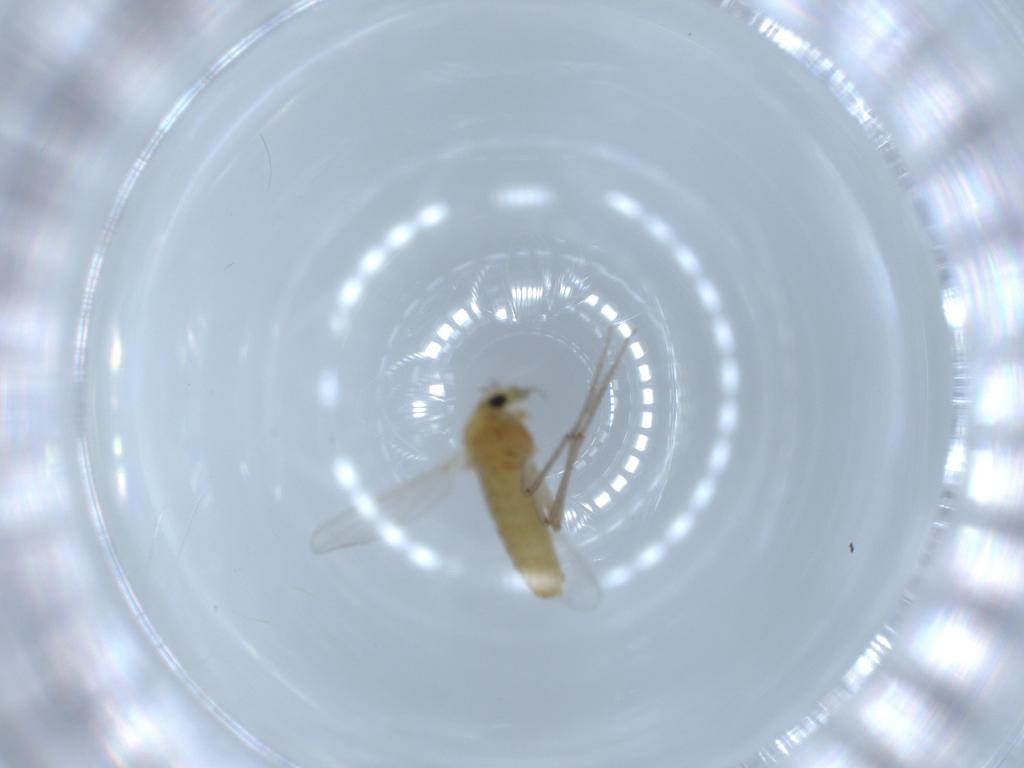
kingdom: Animalia
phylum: Arthropoda
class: Insecta
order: Diptera
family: Chironomidae
